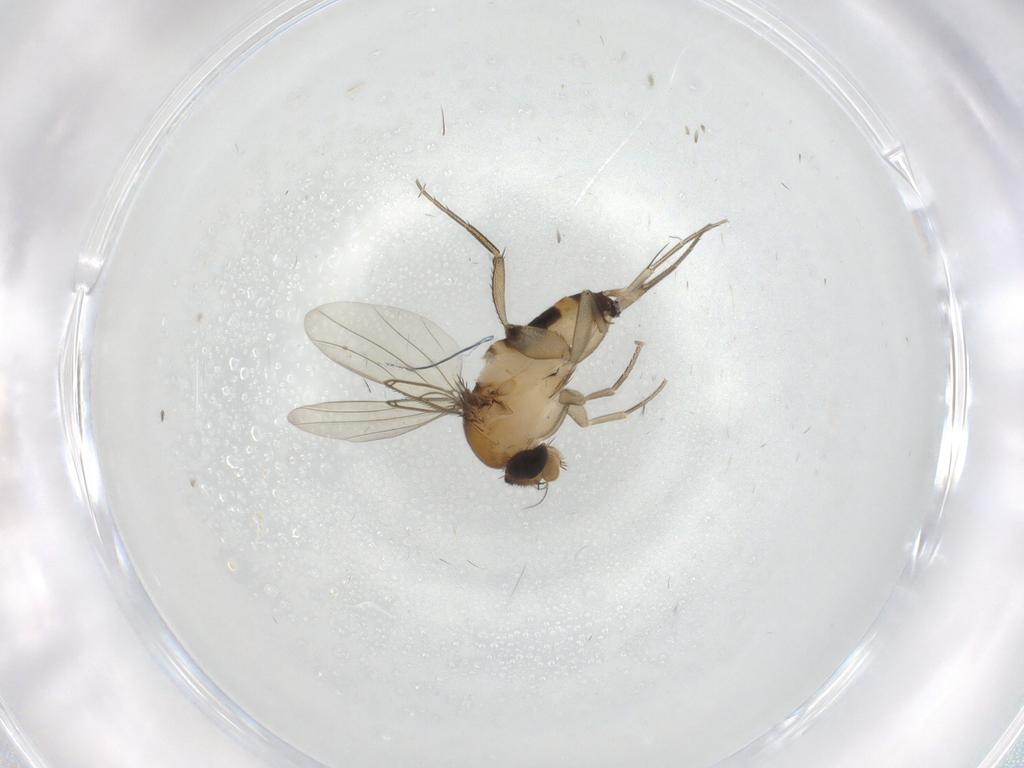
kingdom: Animalia
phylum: Arthropoda
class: Insecta
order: Diptera
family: Phoridae
